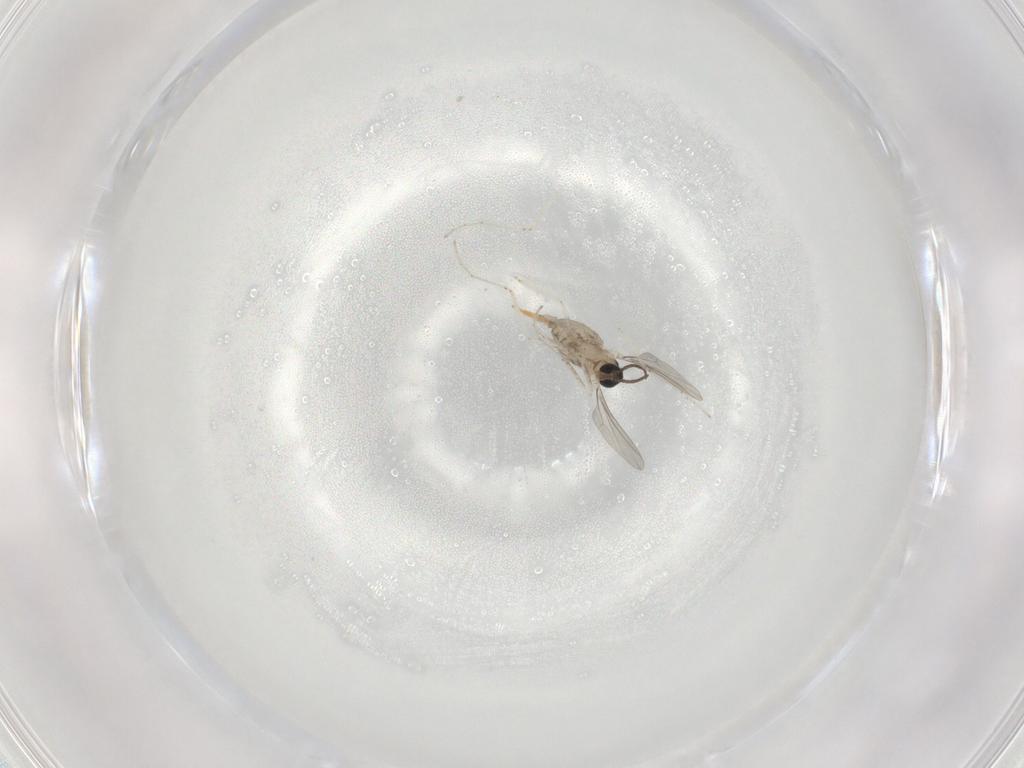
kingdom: Animalia
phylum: Arthropoda
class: Insecta
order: Diptera
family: Cecidomyiidae
